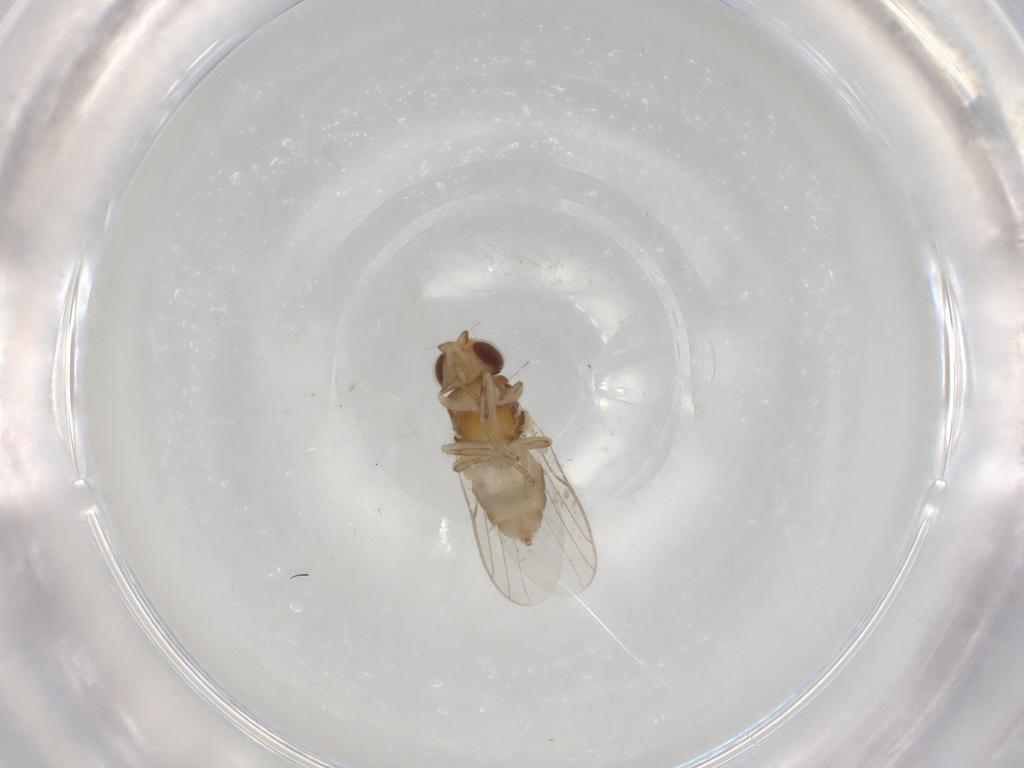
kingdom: Animalia
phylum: Arthropoda
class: Insecta
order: Diptera
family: Chloropidae
